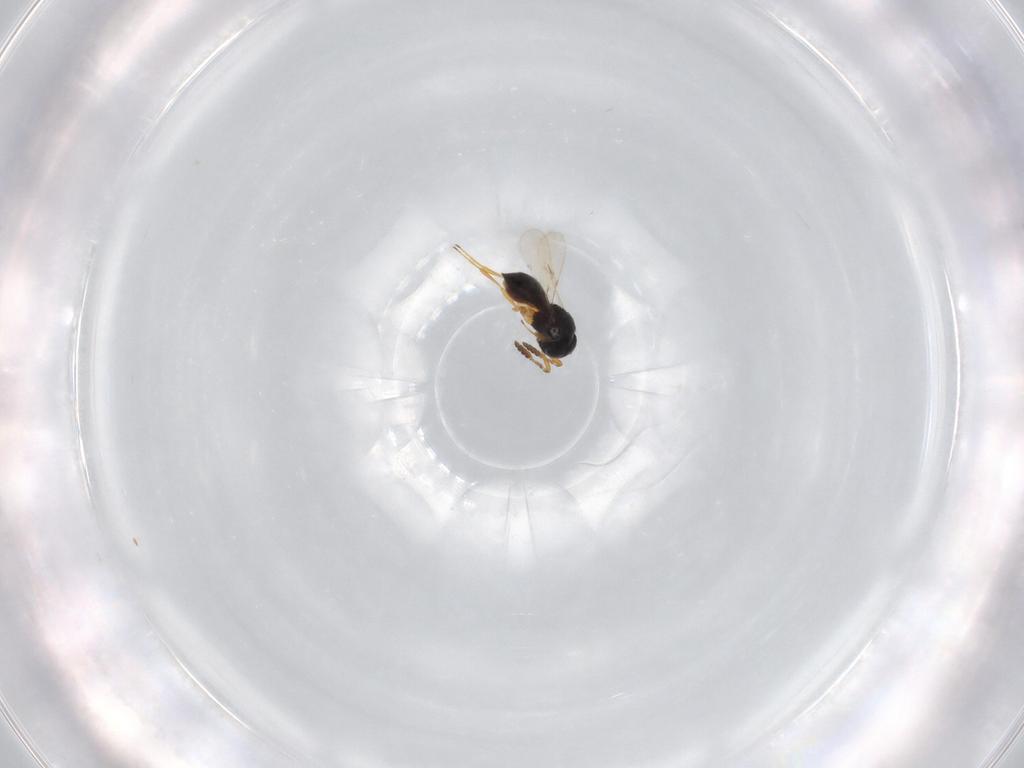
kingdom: Animalia
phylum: Arthropoda
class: Insecta
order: Hymenoptera
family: Scelionidae
